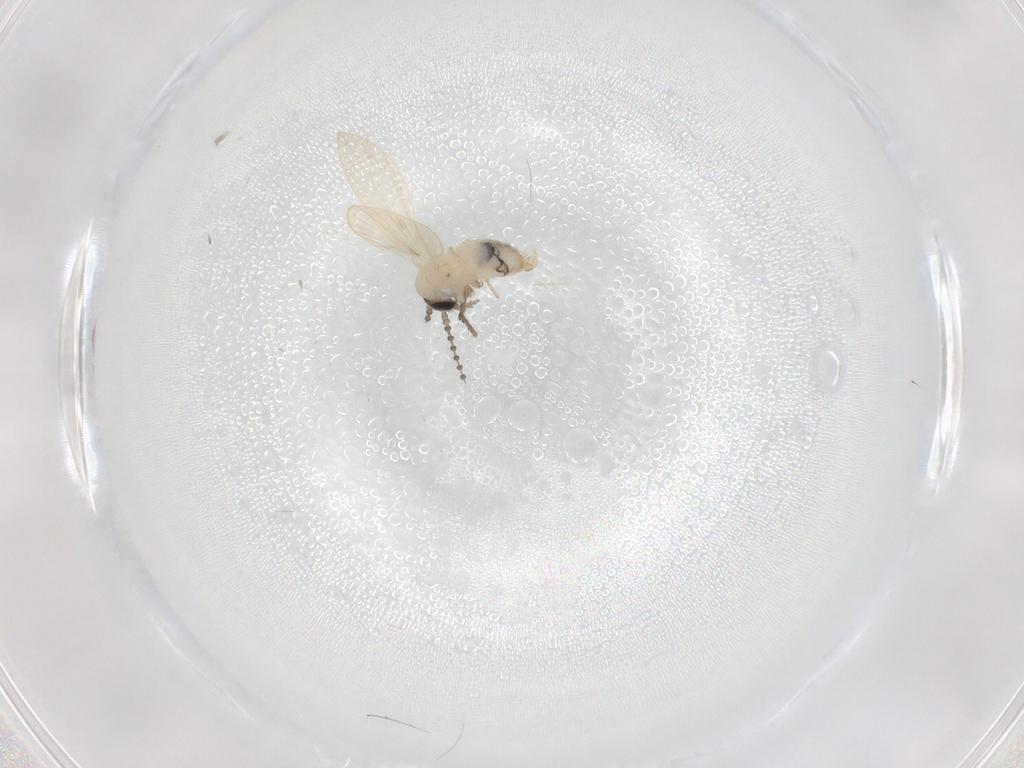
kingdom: Animalia
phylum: Arthropoda
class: Insecta
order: Diptera
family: Psychodidae
